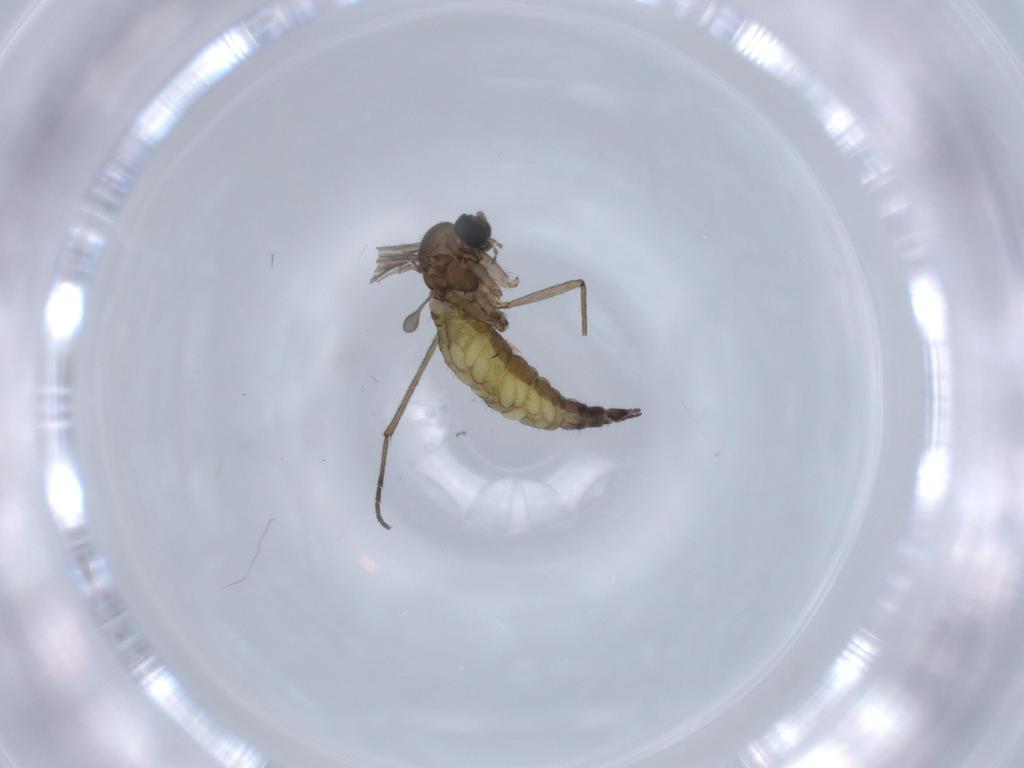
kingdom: Animalia
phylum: Arthropoda
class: Insecta
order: Diptera
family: Sciaridae
